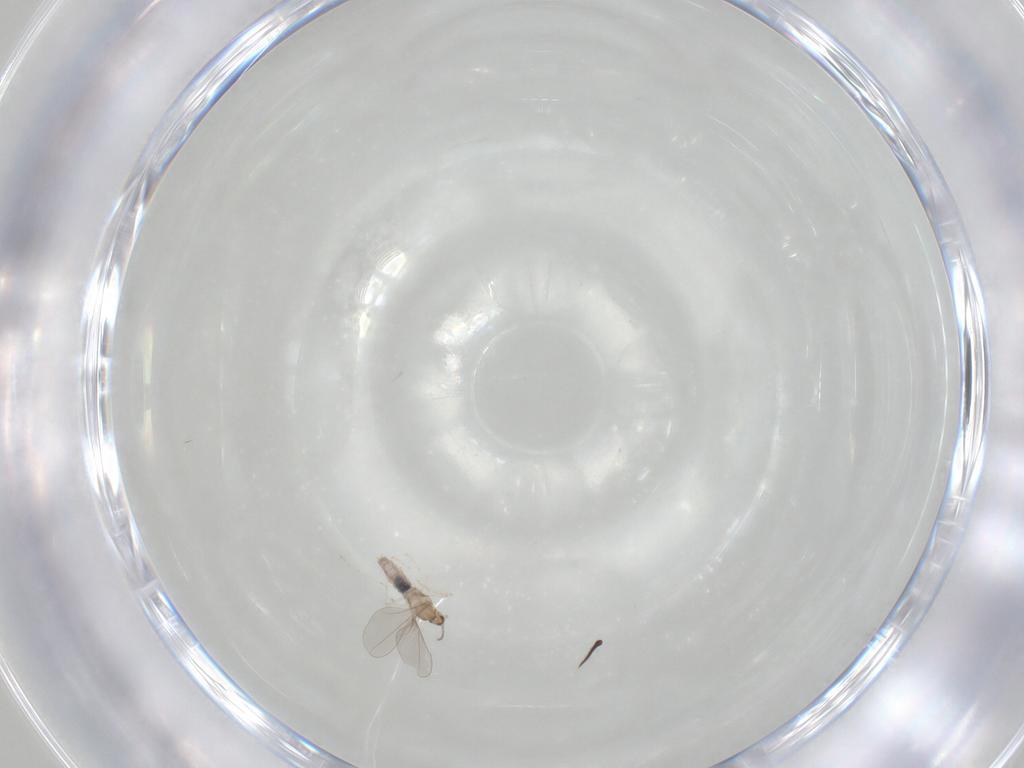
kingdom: Animalia
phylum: Arthropoda
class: Insecta
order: Diptera
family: Cecidomyiidae
